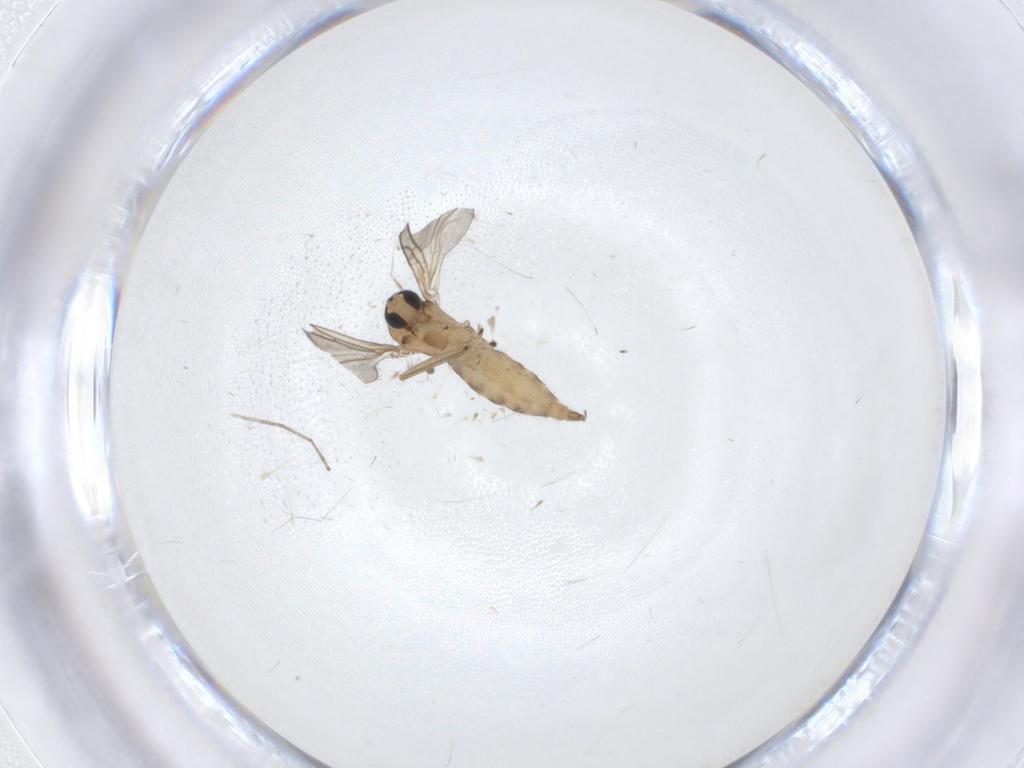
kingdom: Animalia
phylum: Arthropoda
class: Insecta
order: Diptera
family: Sciaridae
